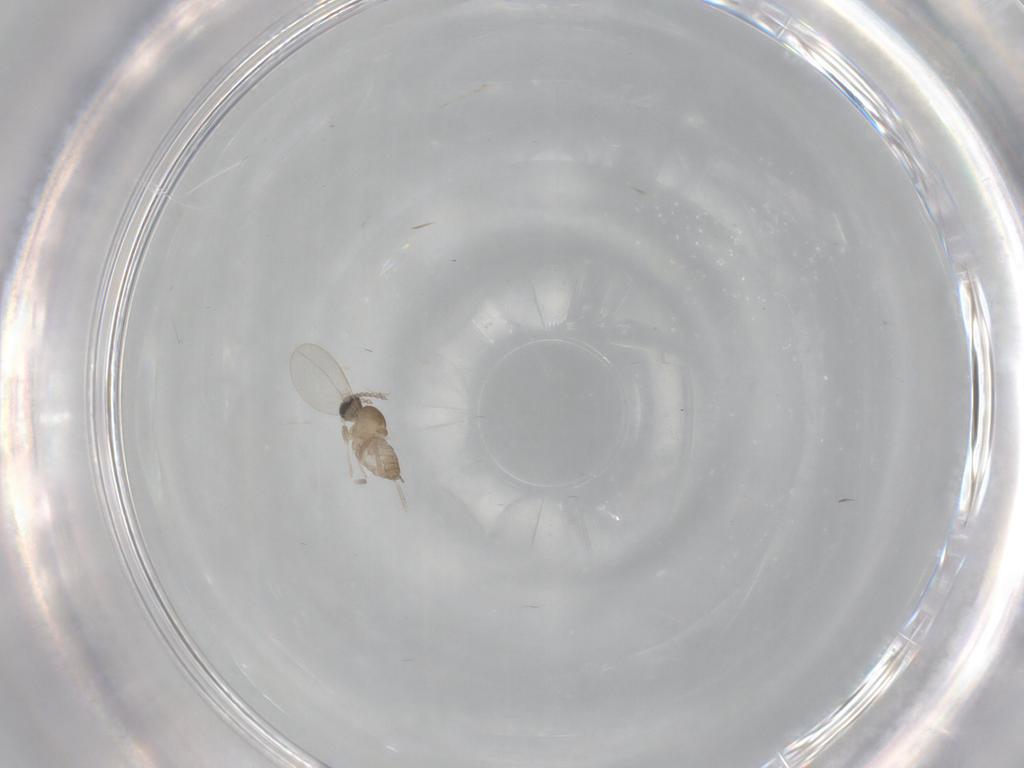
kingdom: Animalia
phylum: Arthropoda
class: Insecta
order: Diptera
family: Cecidomyiidae
